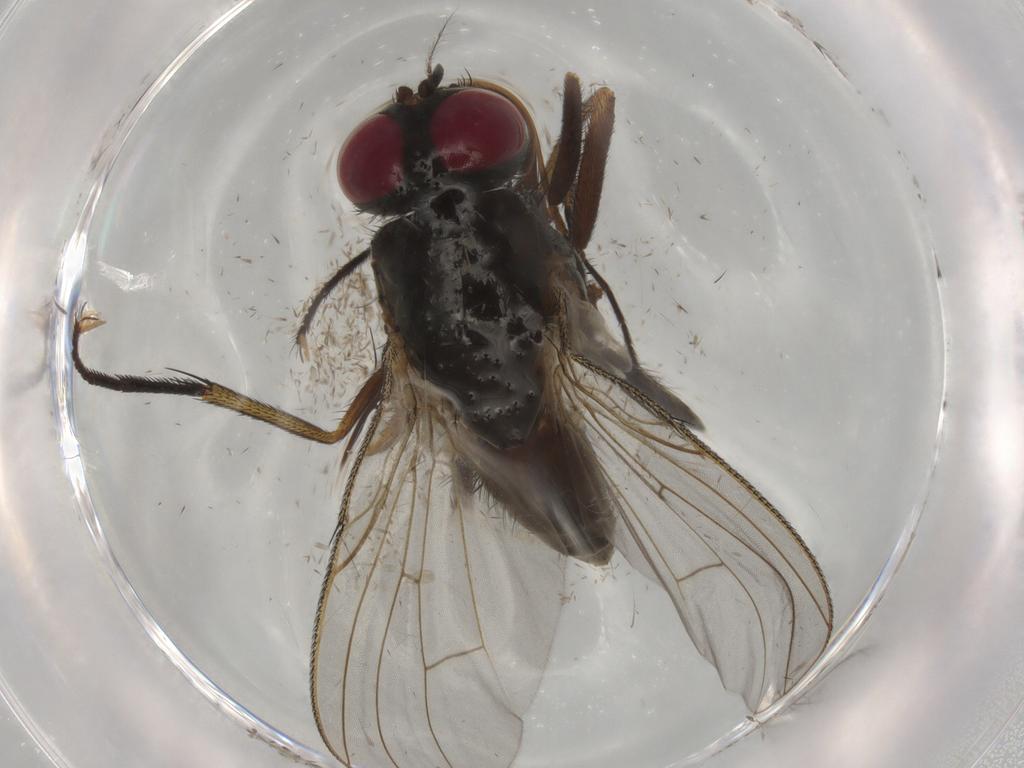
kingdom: Animalia
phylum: Arthropoda
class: Insecta
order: Diptera
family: Muscidae
